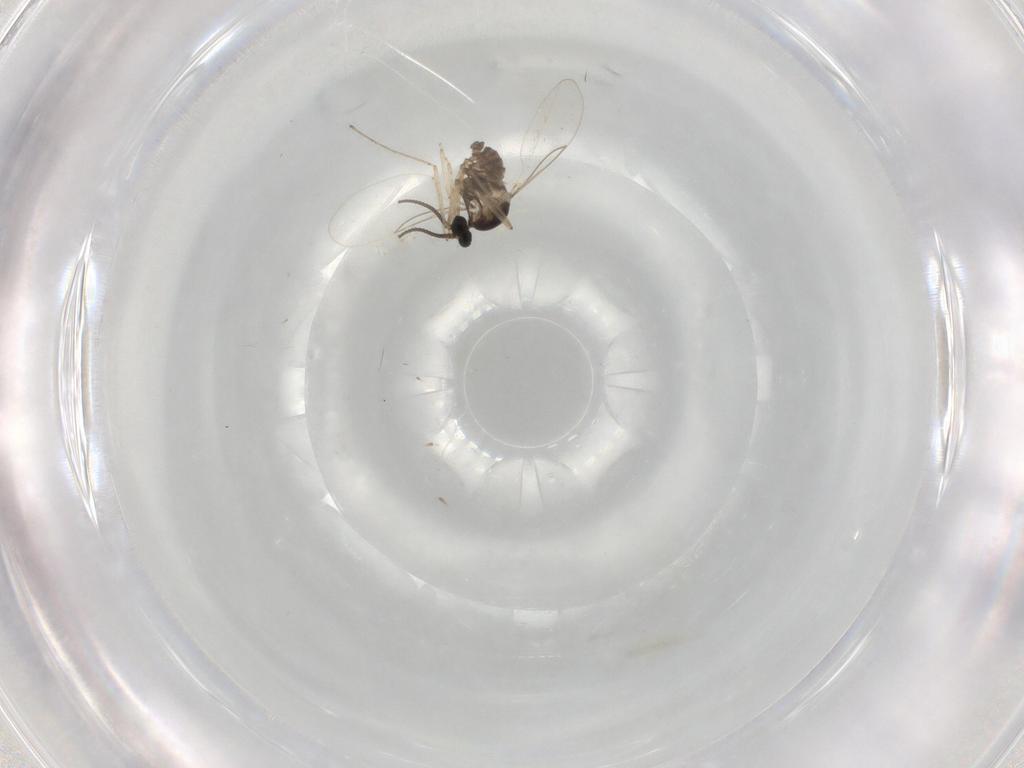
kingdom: Animalia
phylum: Arthropoda
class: Insecta
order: Diptera
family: Cecidomyiidae
